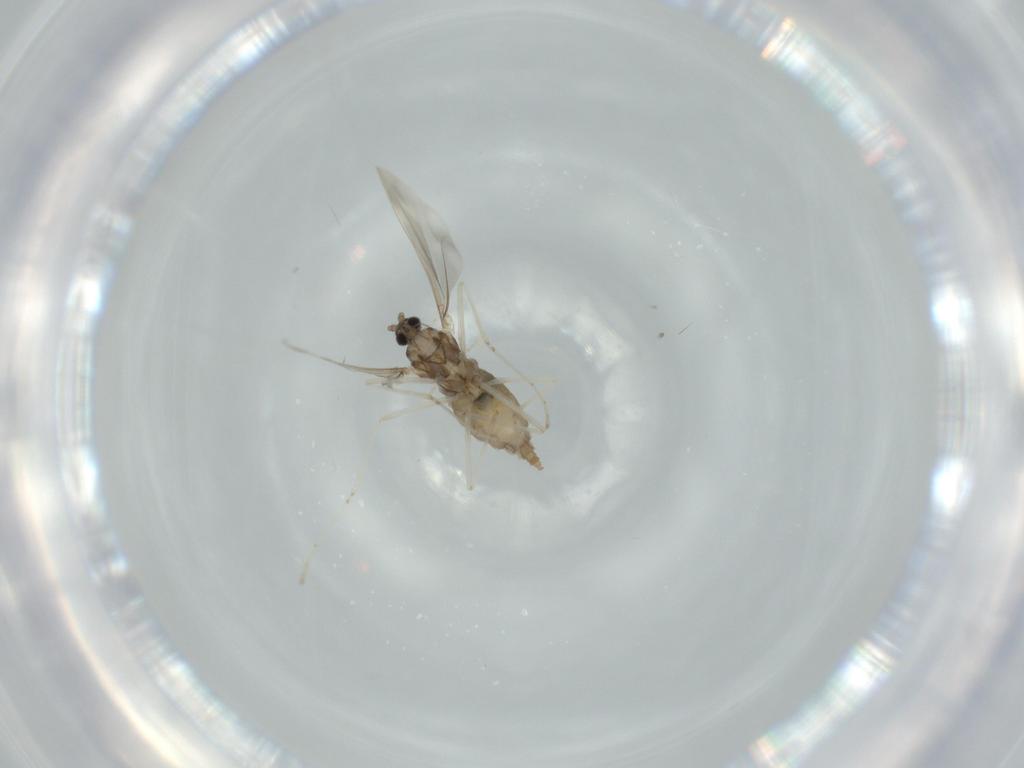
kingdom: Animalia
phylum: Arthropoda
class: Insecta
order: Diptera
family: Cecidomyiidae
